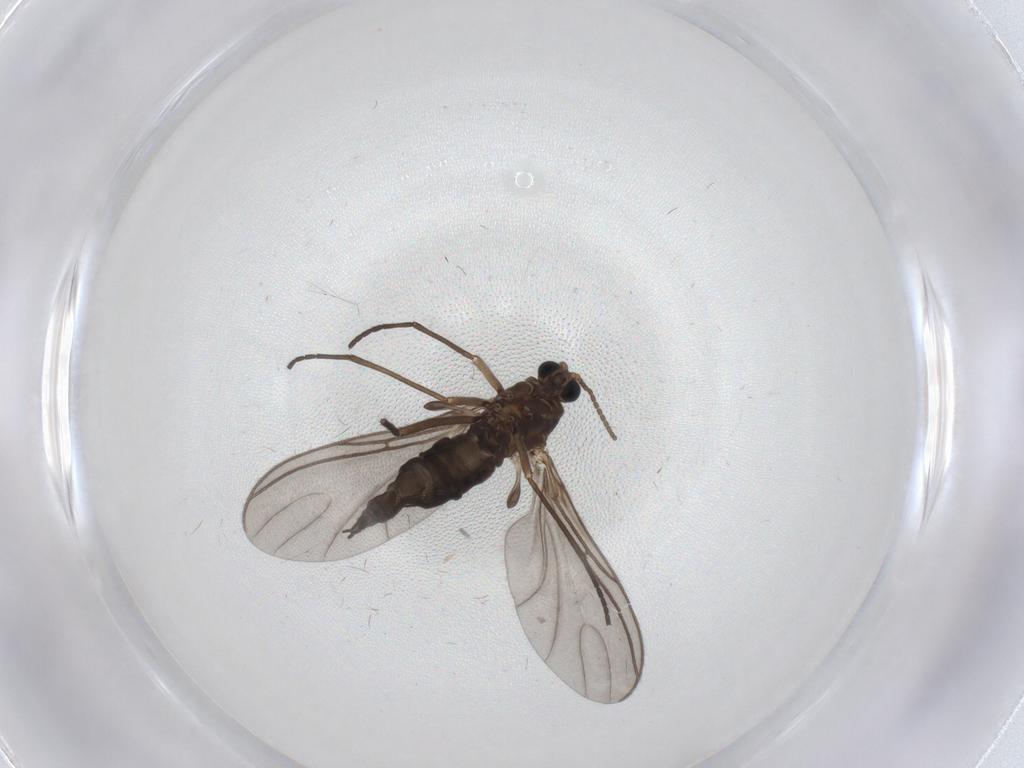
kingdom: Animalia
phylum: Arthropoda
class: Insecta
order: Diptera
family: Sciaridae
